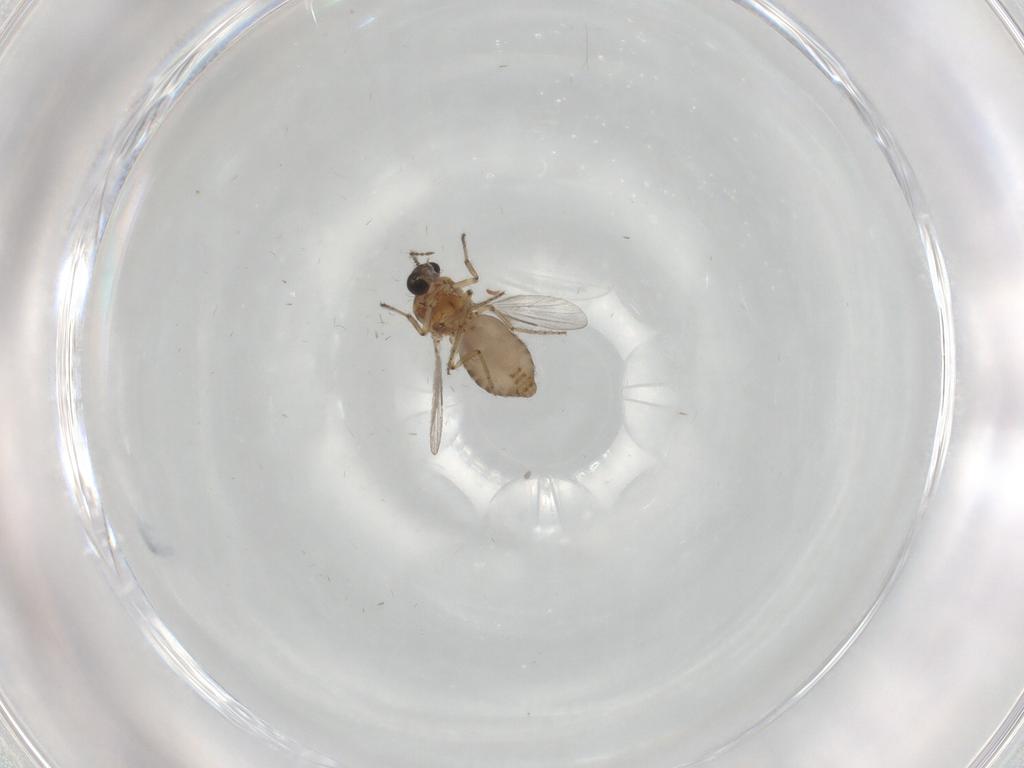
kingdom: Animalia
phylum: Arthropoda
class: Insecta
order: Diptera
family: Ceratopogonidae
